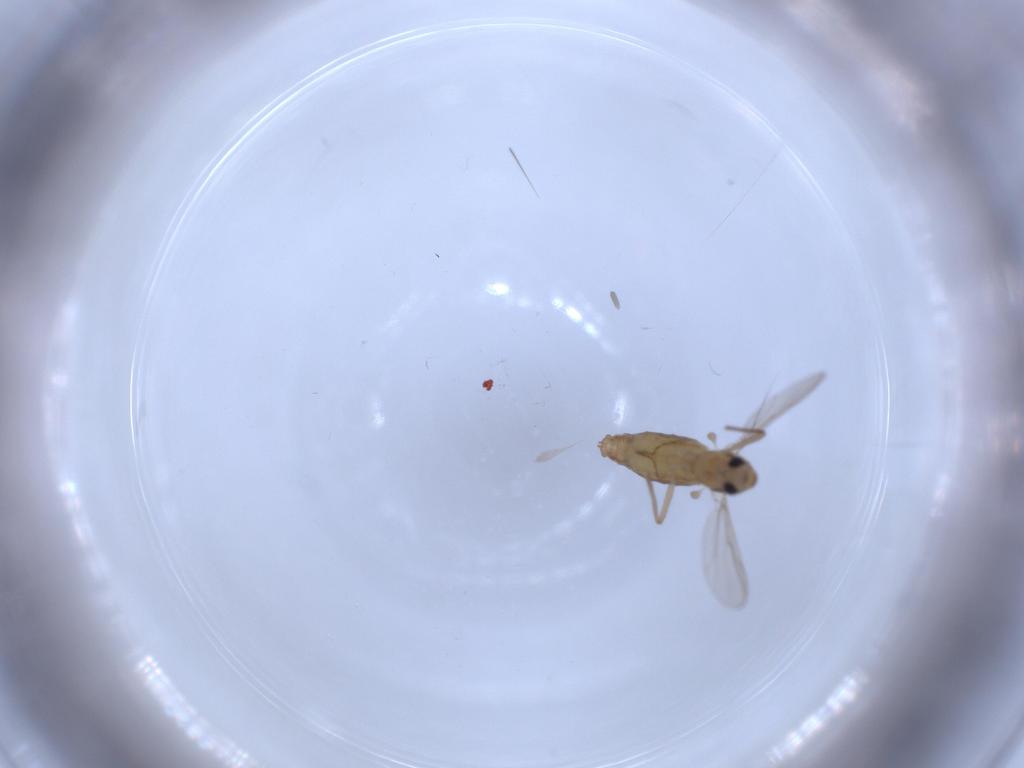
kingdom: Animalia
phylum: Arthropoda
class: Insecta
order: Diptera
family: Chironomidae
